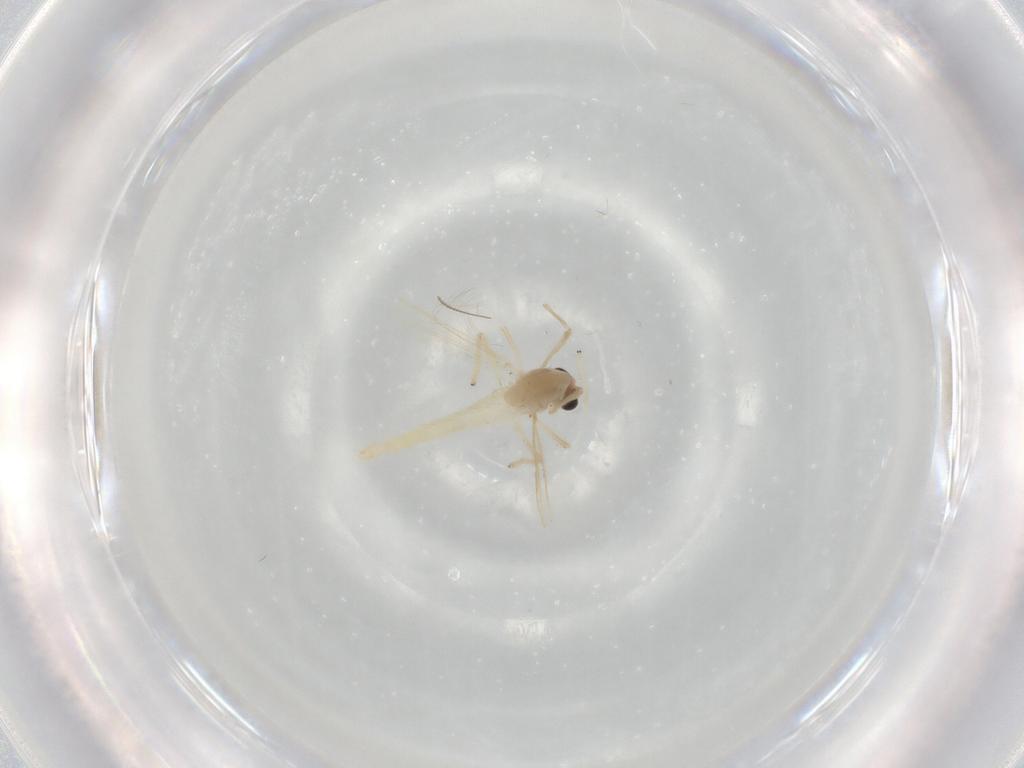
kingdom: Animalia
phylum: Arthropoda
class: Insecta
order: Diptera
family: Chironomidae
